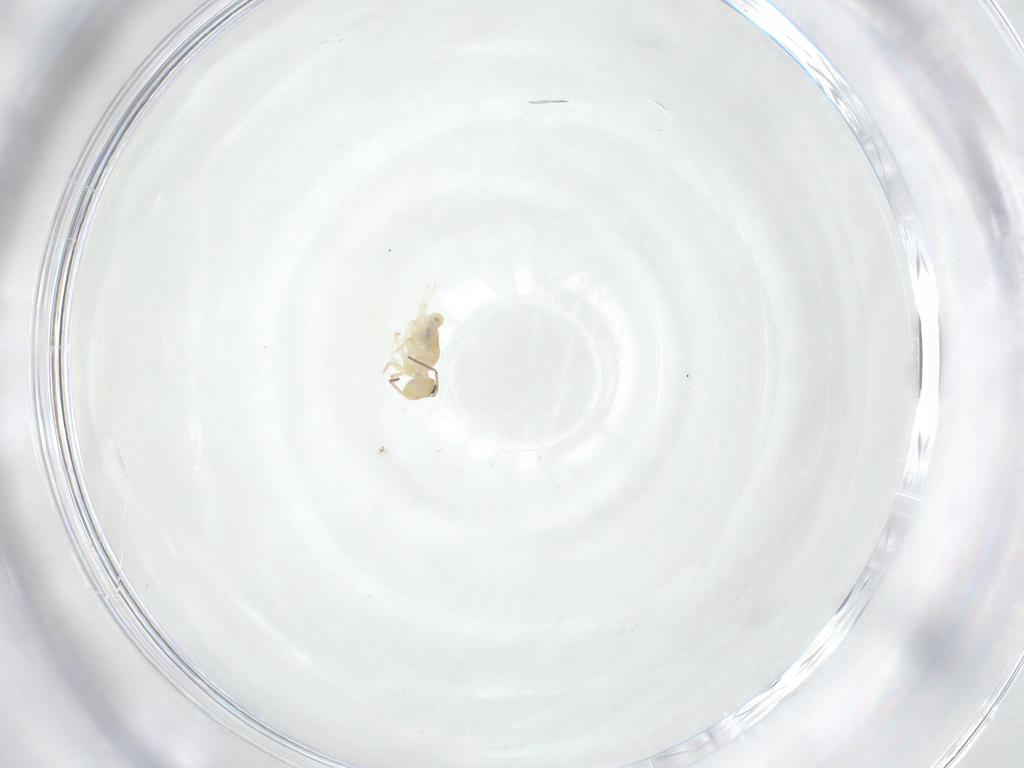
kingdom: Animalia
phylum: Arthropoda
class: Collembola
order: Symphypleona
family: Bourletiellidae
